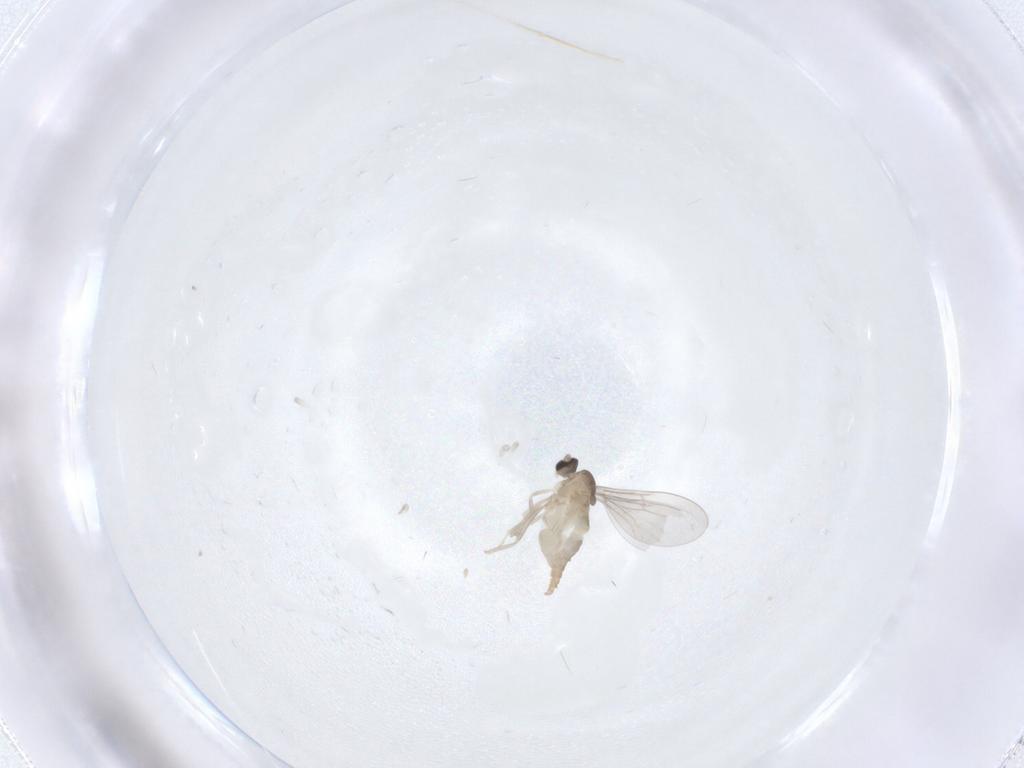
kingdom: Animalia
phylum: Arthropoda
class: Insecta
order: Diptera
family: Cecidomyiidae
